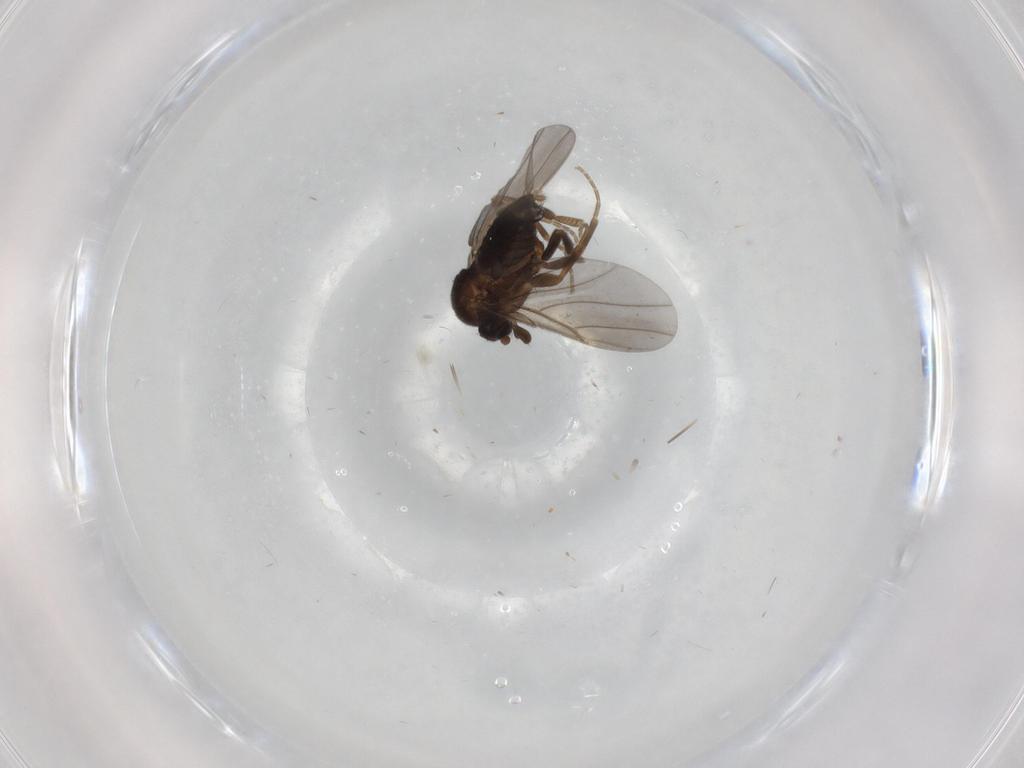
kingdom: Animalia
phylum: Arthropoda
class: Insecta
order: Diptera
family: Phoridae
